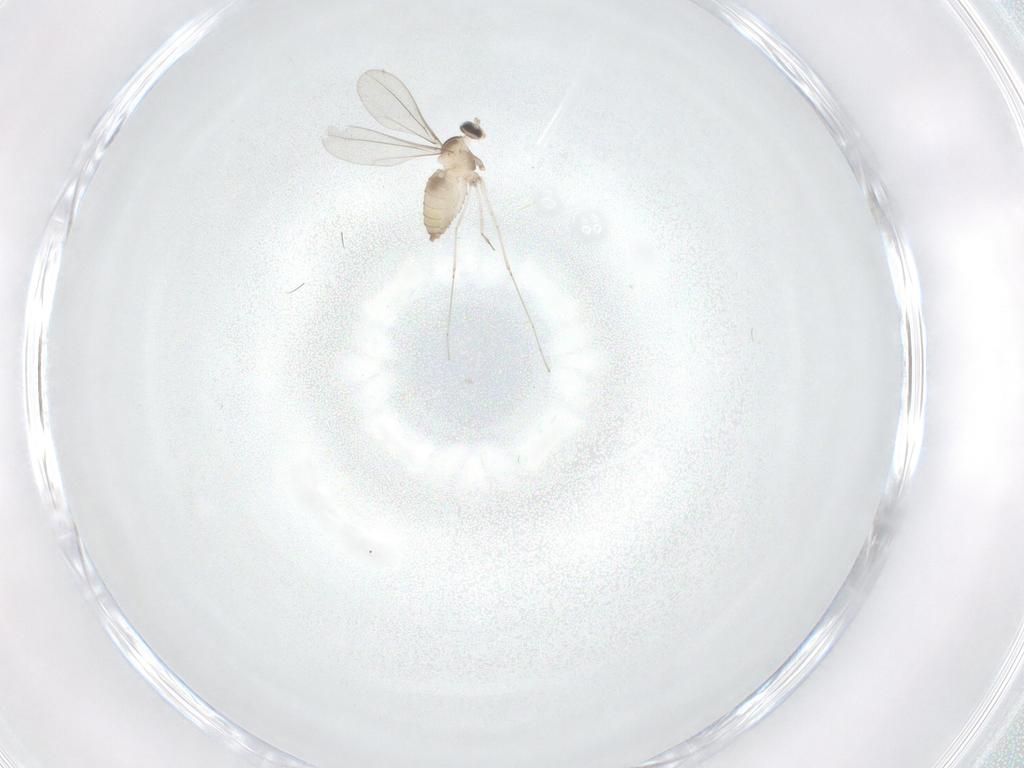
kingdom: Animalia
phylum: Arthropoda
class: Insecta
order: Diptera
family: Cecidomyiidae
